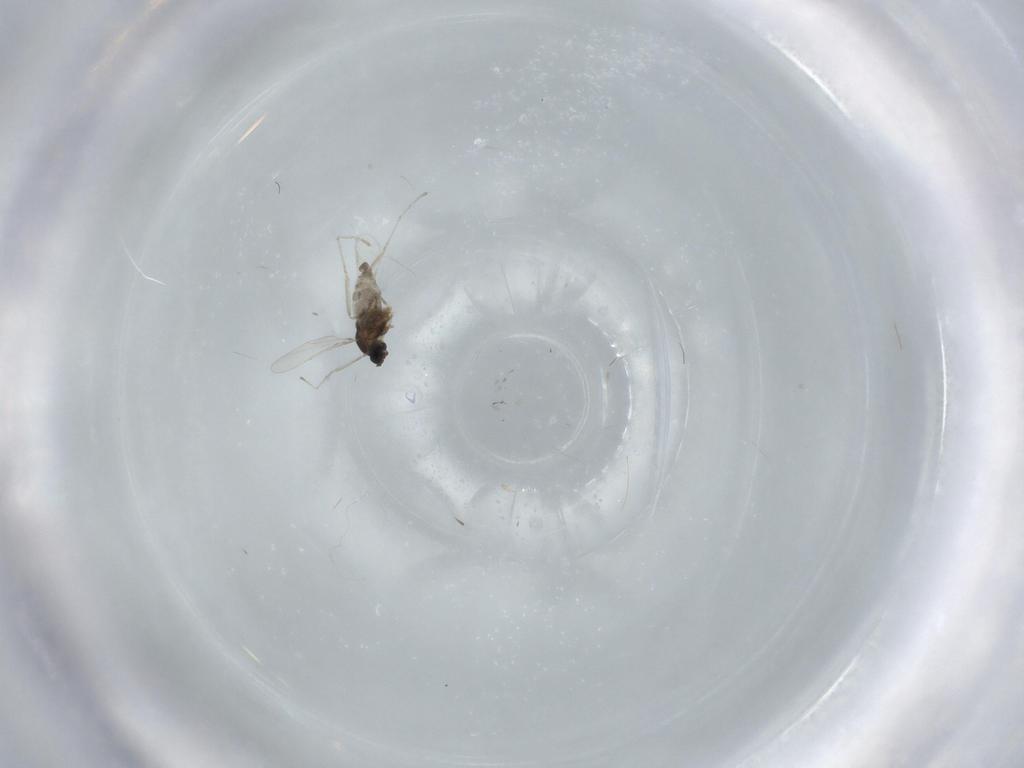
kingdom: Animalia
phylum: Arthropoda
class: Insecta
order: Diptera
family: Cecidomyiidae
